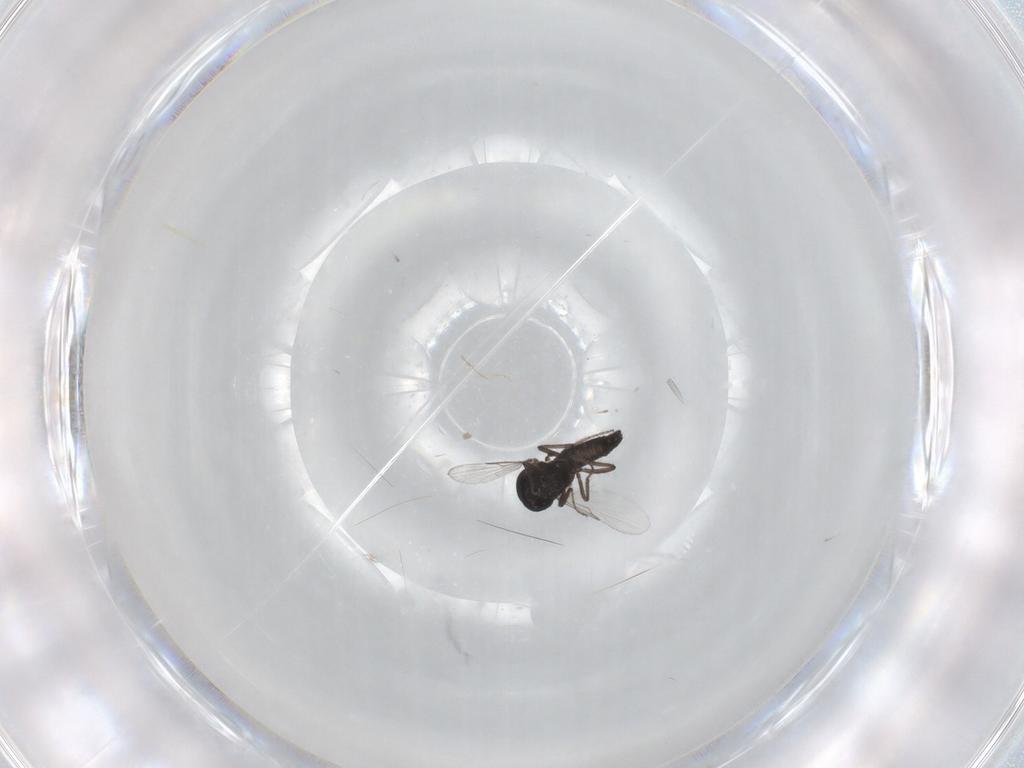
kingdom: Animalia
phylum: Arthropoda
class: Insecta
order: Diptera
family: Ceratopogonidae
